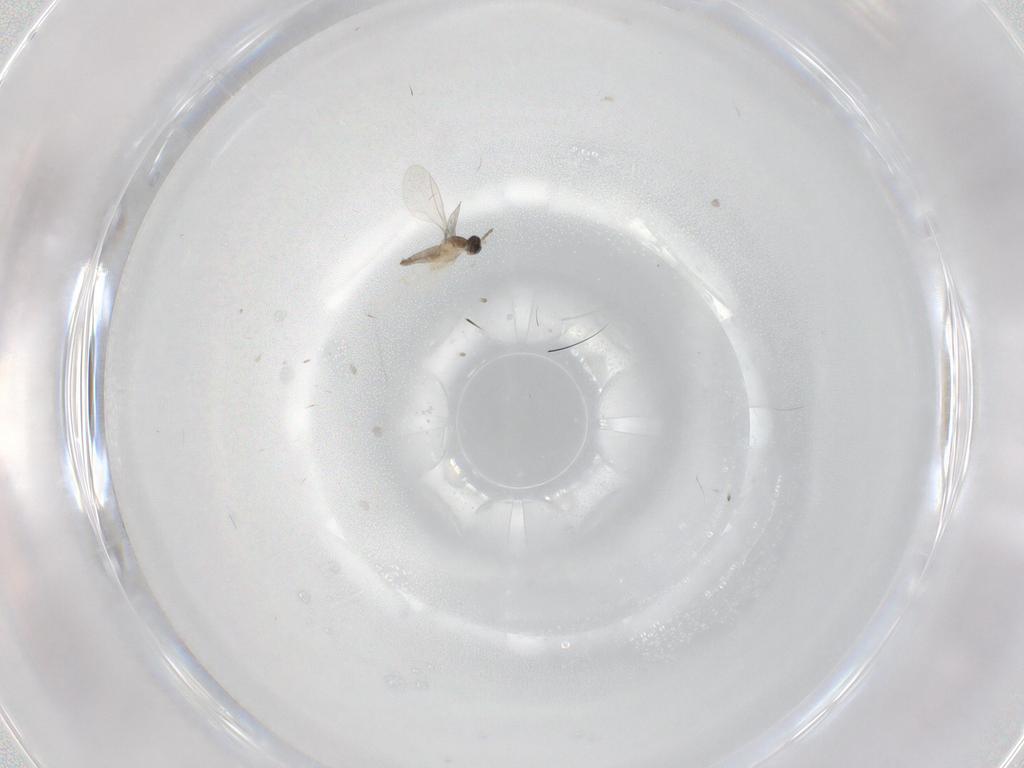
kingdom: Animalia
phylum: Arthropoda
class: Insecta
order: Diptera
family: Cecidomyiidae
